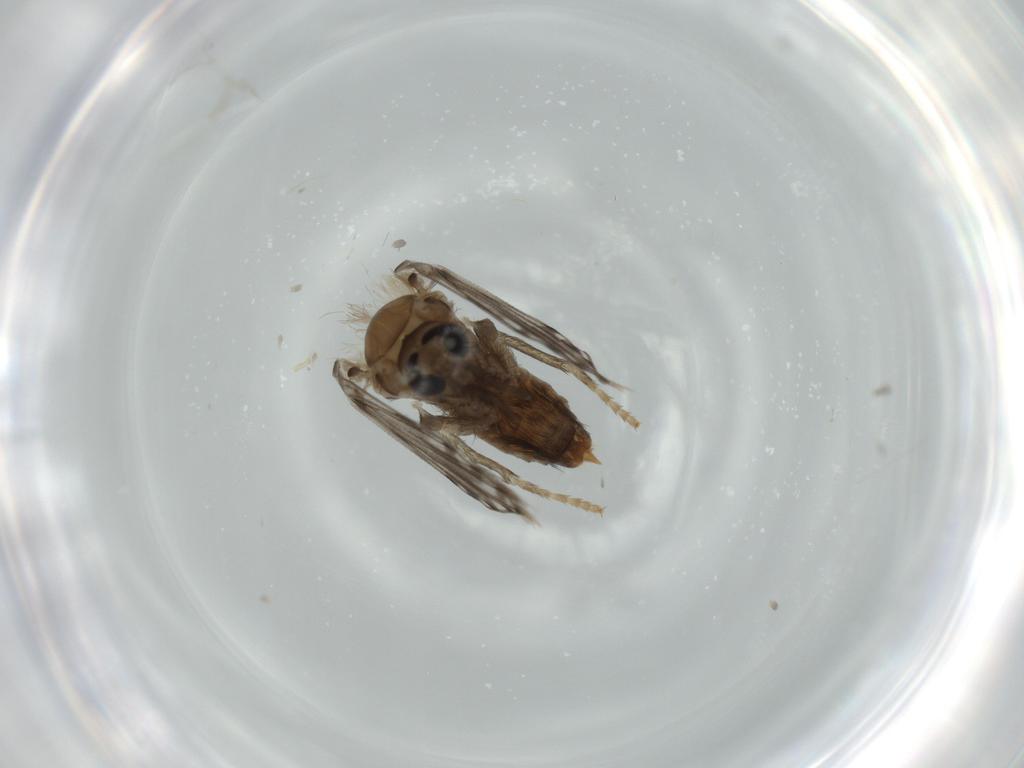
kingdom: Animalia
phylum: Arthropoda
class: Insecta
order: Diptera
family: Psychodidae
